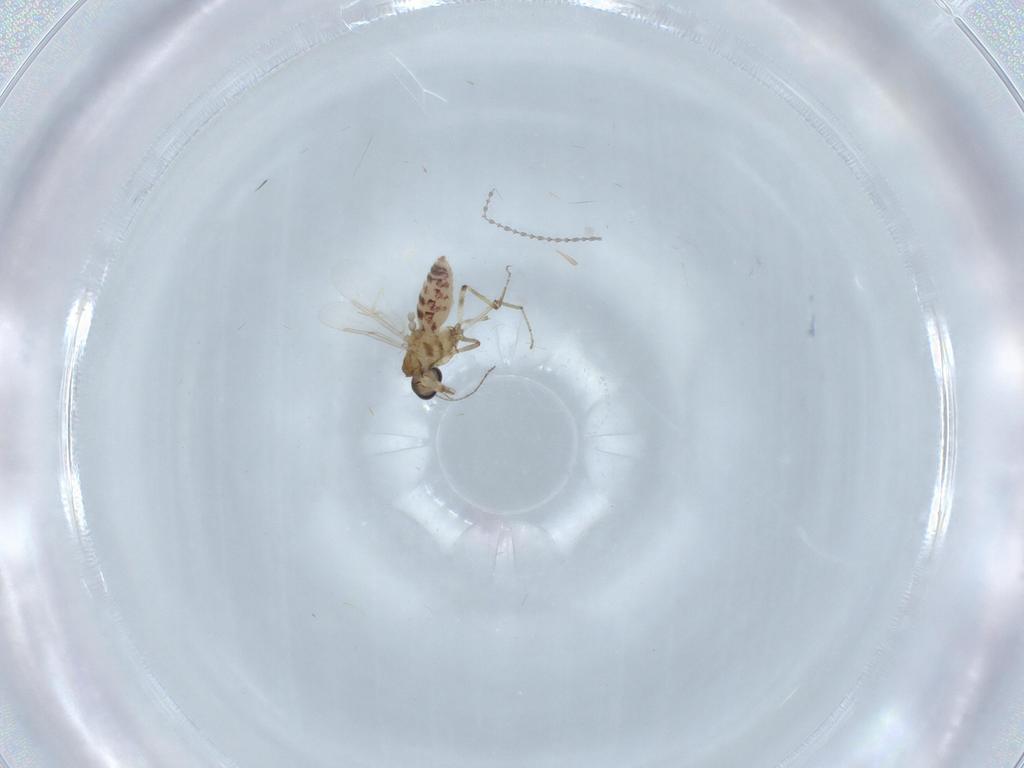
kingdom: Animalia
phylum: Arthropoda
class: Insecta
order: Diptera
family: Ceratopogonidae
